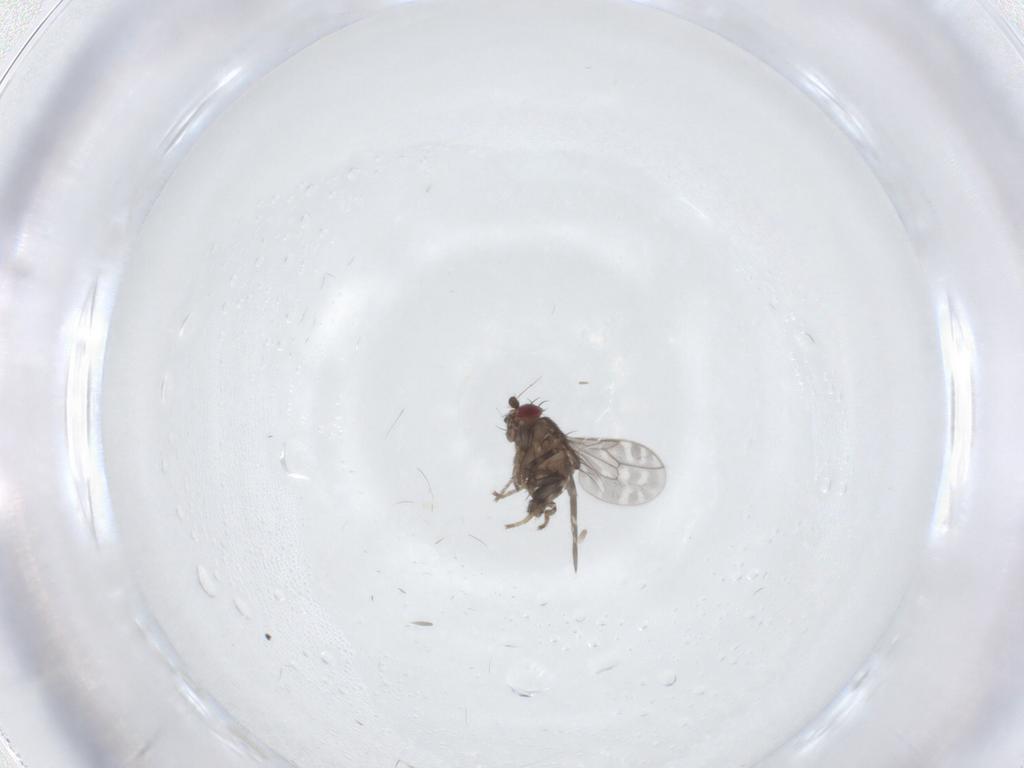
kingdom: Animalia
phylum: Arthropoda
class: Insecta
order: Diptera
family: Sphaeroceridae
